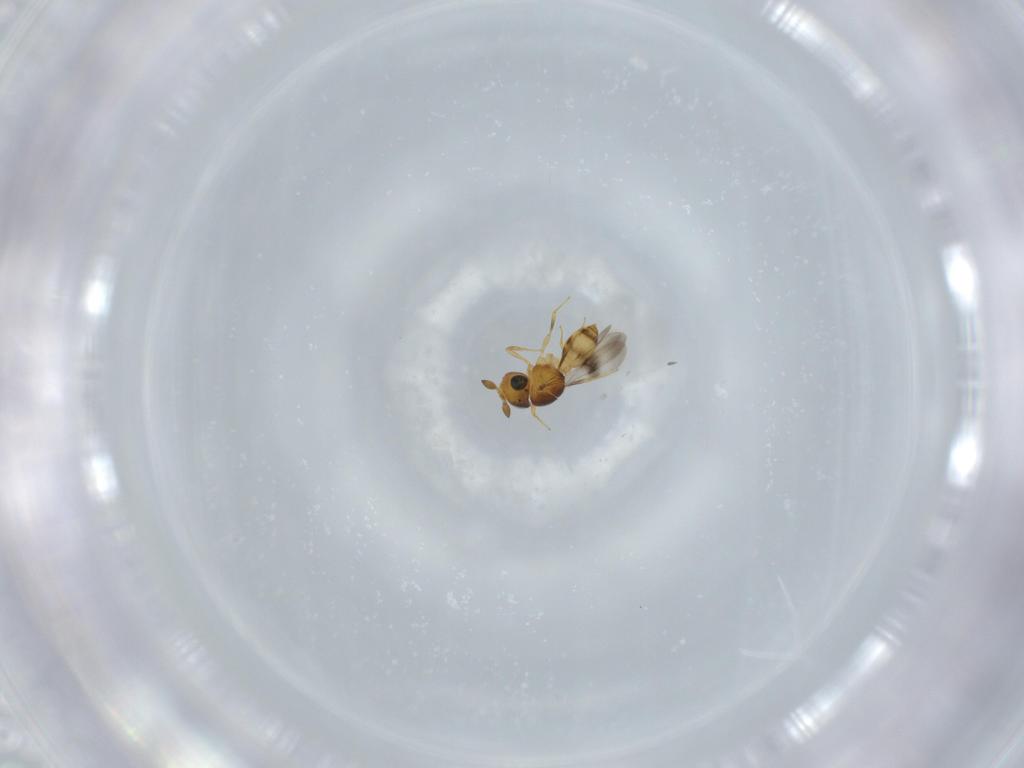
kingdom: Animalia
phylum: Arthropoda
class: Insecta
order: Hymenoptera
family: Scelionidae
